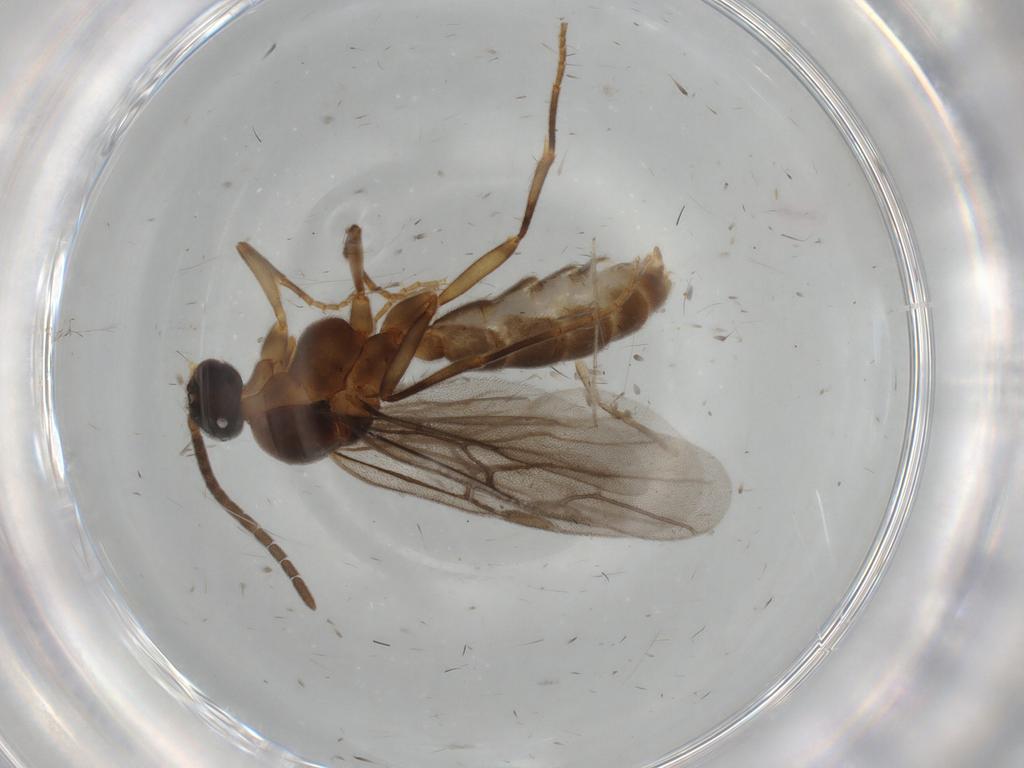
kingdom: Animalia
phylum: Arthropoda
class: Insecta
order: Hymenoptera
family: Formicidae
